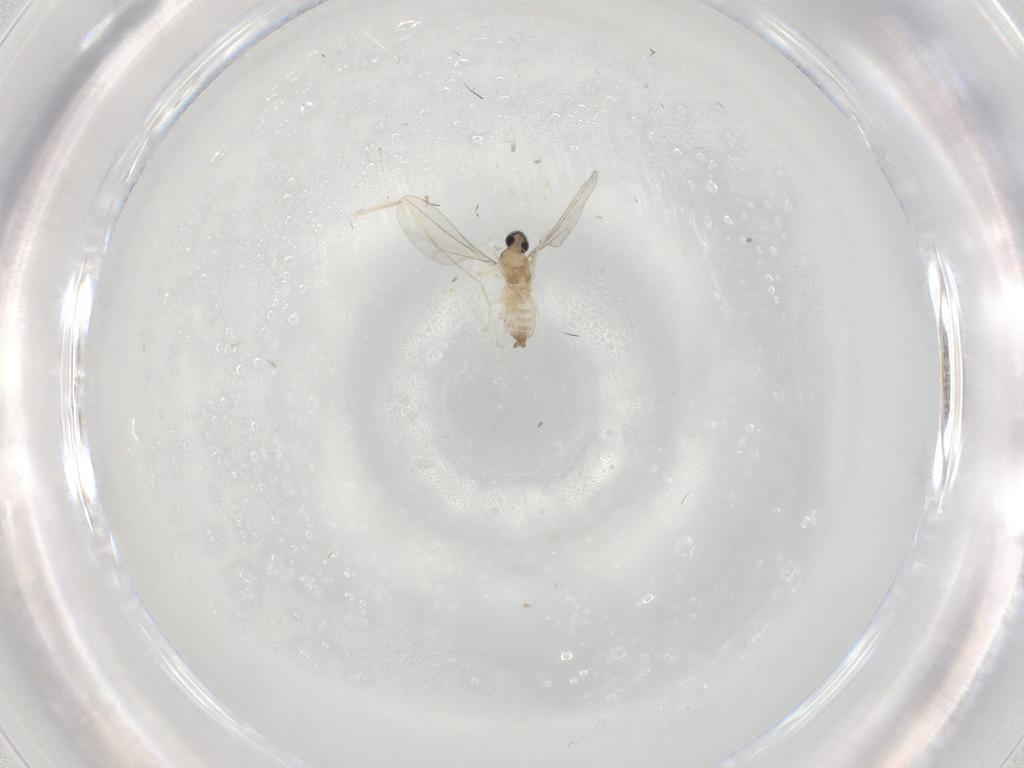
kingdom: Animalia
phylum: Arthropoda
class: Insecta
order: Diptera
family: Cecidomyiidae
